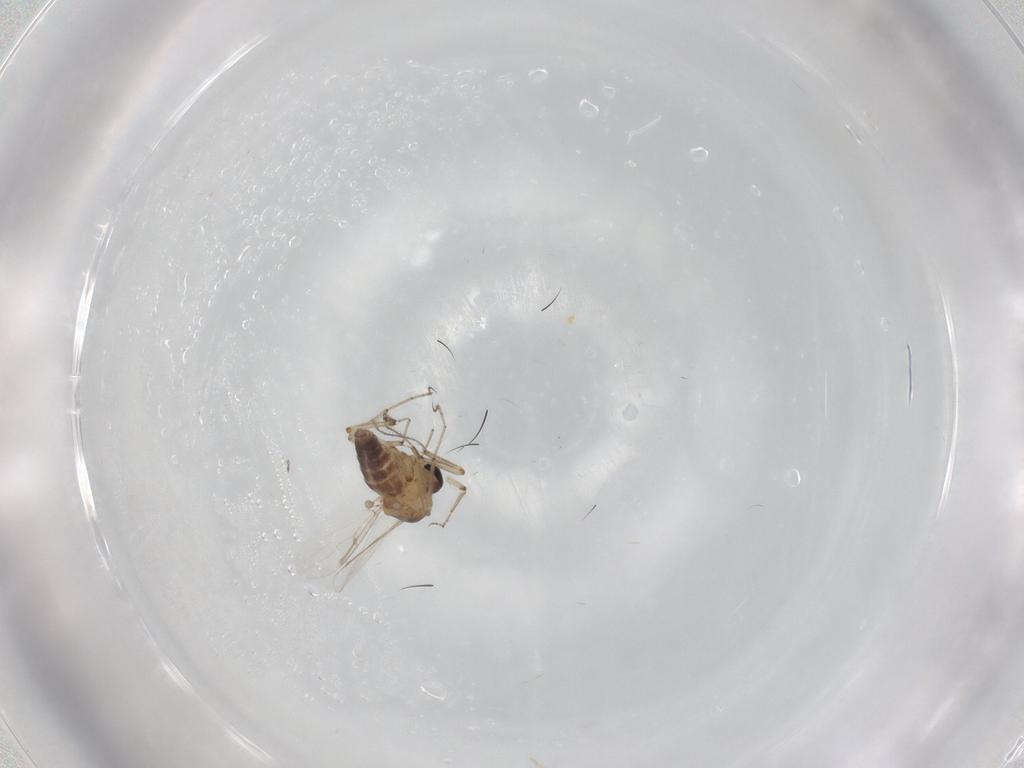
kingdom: Animalia
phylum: Arthropoda
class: Insecta
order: Diptera
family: Ceratopogonidae
